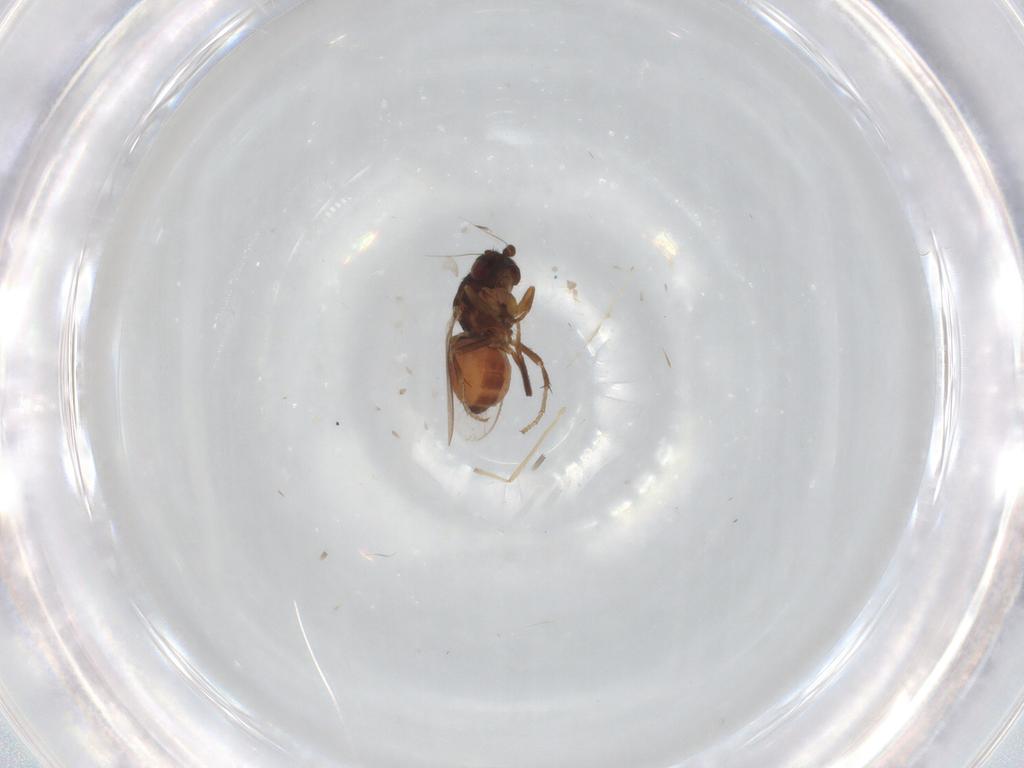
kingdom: Animalia
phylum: Arthropoda
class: Insecta
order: Diptera
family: Sphaeroceridae
